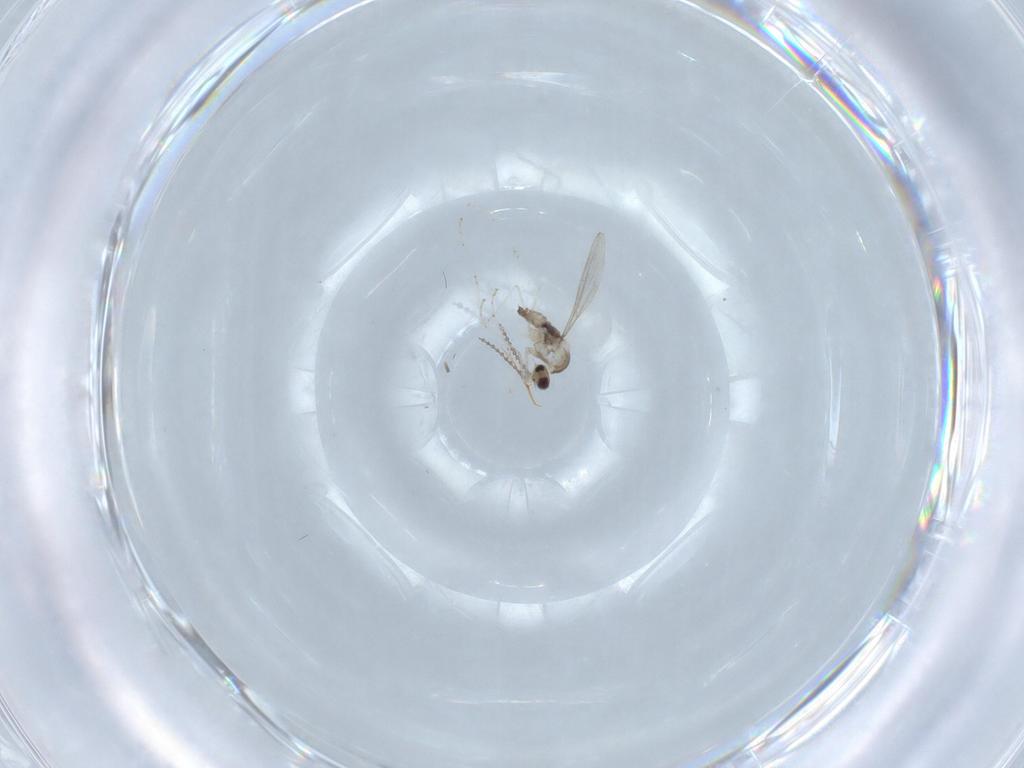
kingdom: Animalia
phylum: Arthropoda
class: Insecta
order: Diptera
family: Cecidomyiidae
